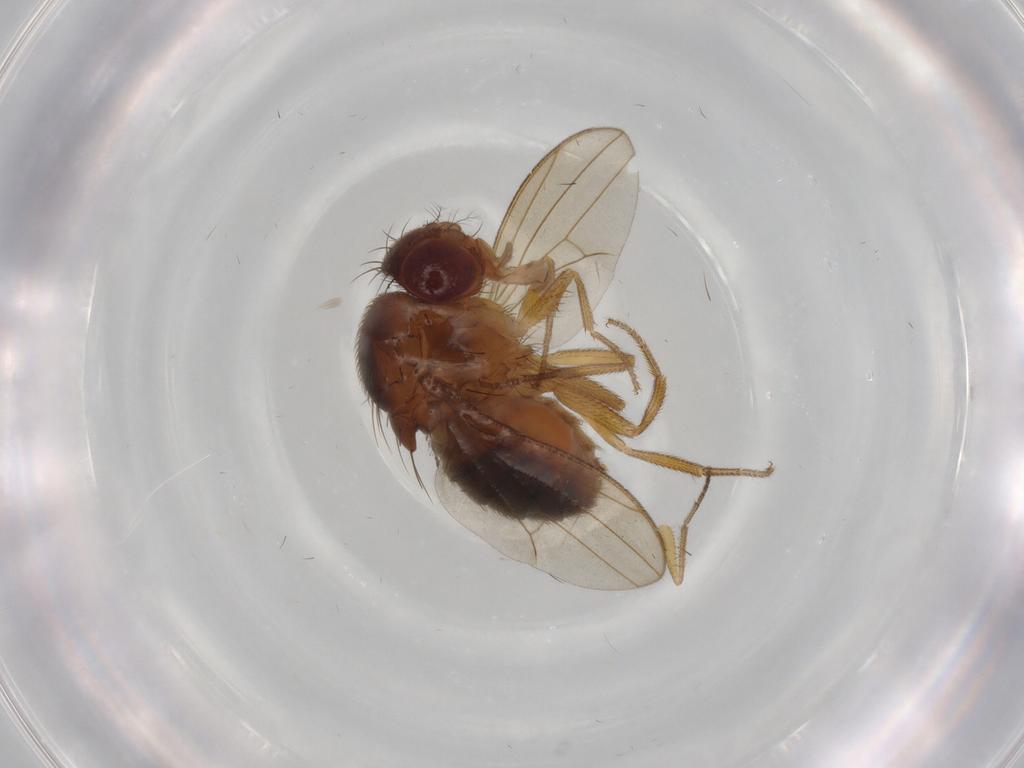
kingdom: Animalia
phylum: Arthropoda
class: Insecta
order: Diptera
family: Drosophilidae
